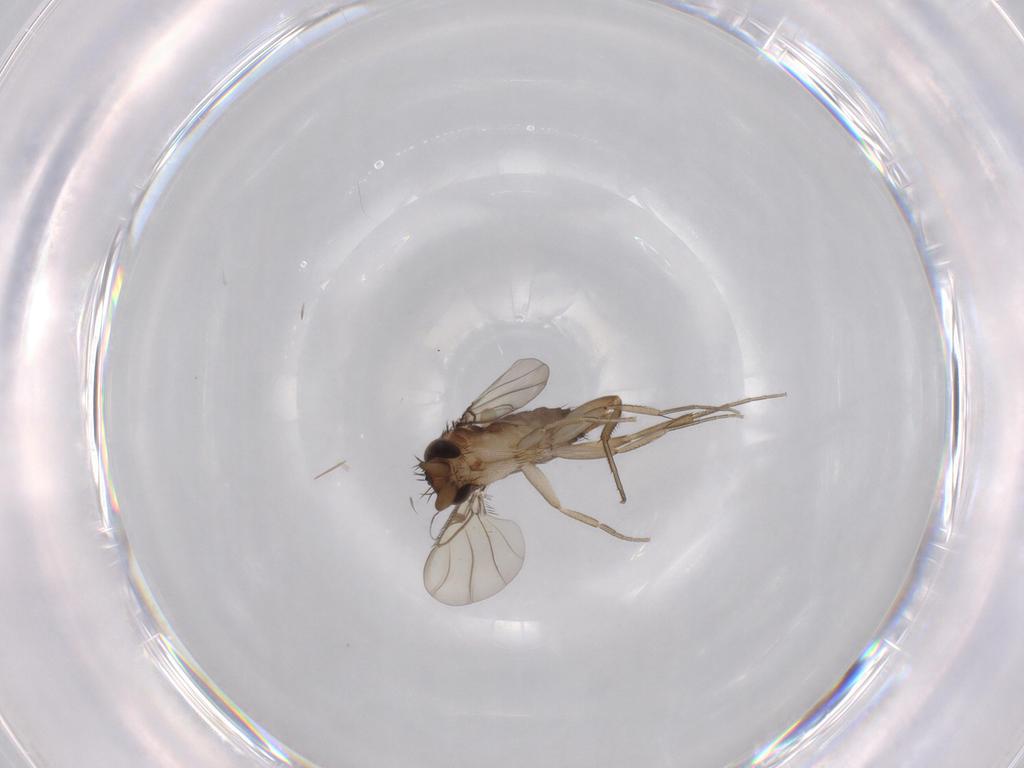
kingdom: Animalia
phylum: Arthropoda
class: Insecta
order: Diptera
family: Phoridae
